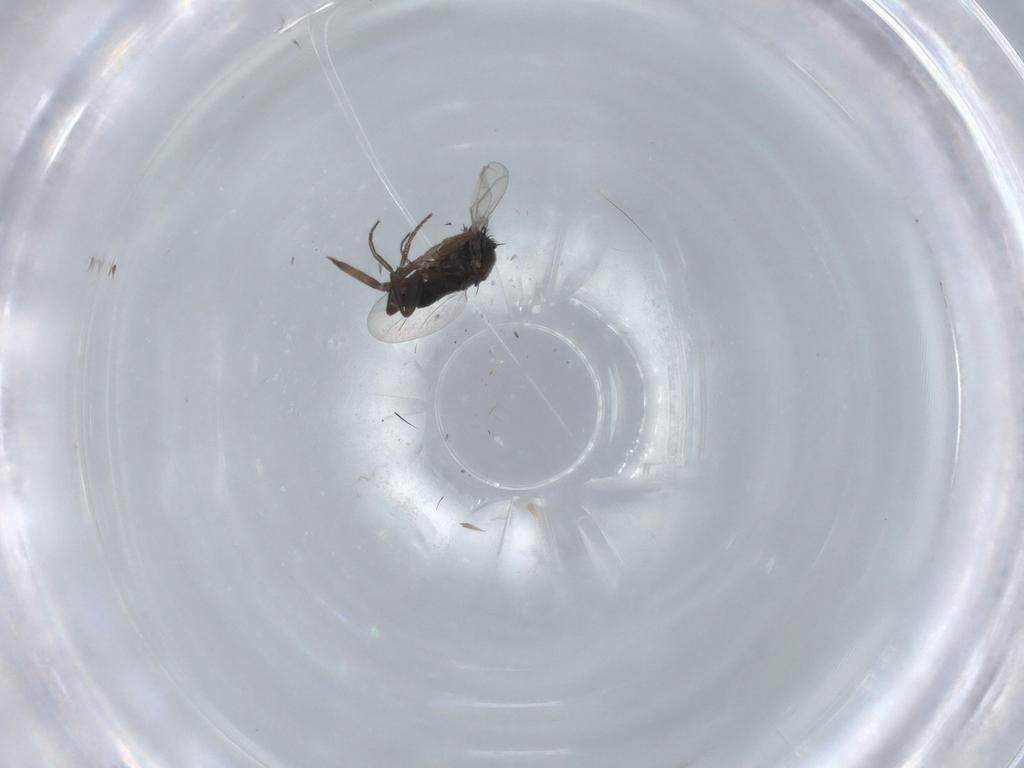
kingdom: Animalia
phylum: Arthropoda
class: Insecta
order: Diptera
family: Phoridae
